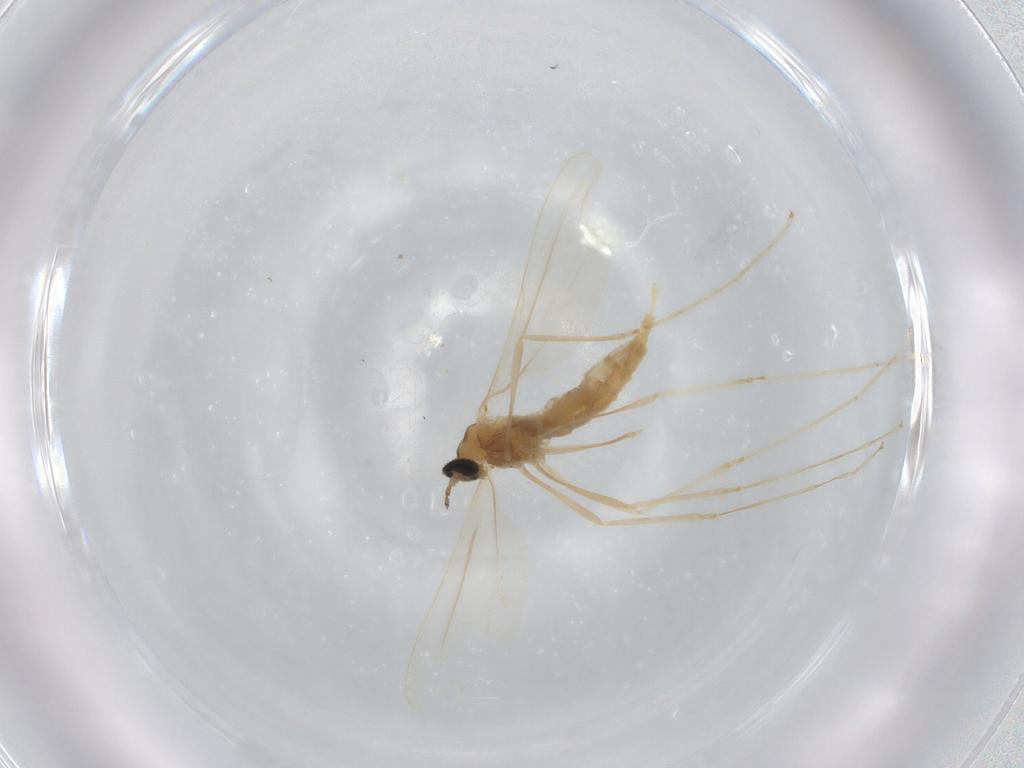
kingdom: Animalia
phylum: Arthropoda
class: Insecta
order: Diptera
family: Cecidomyiidae
